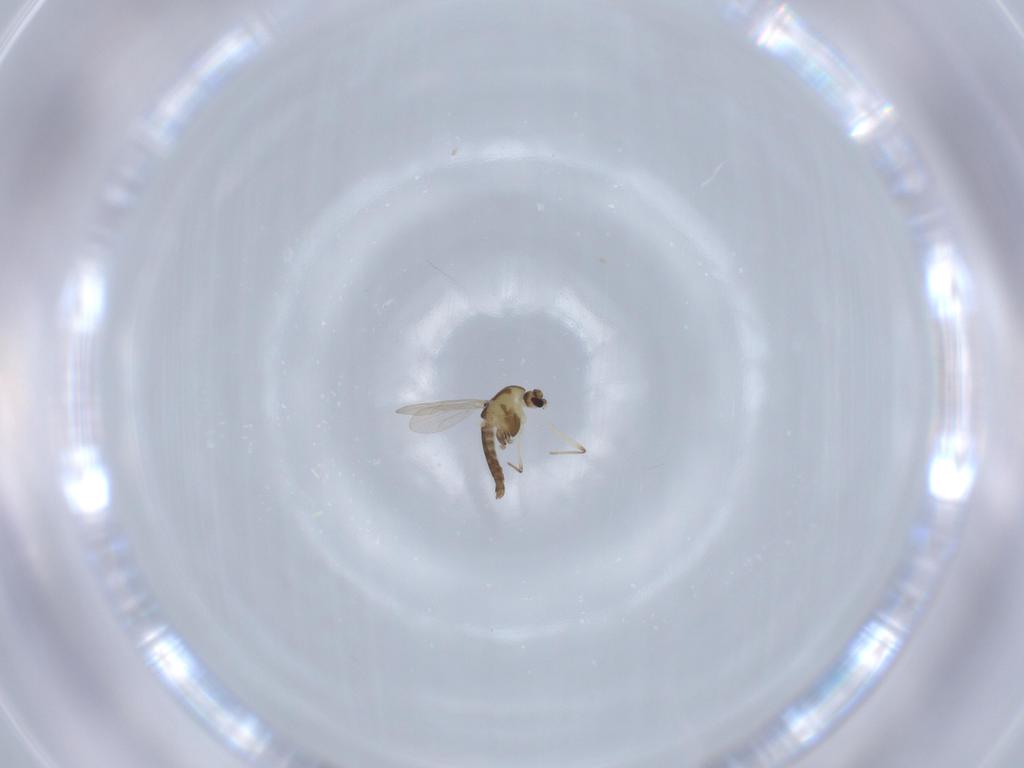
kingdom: Animalia
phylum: Arthropoda
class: Insecta
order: Diptera
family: Chironomidae
